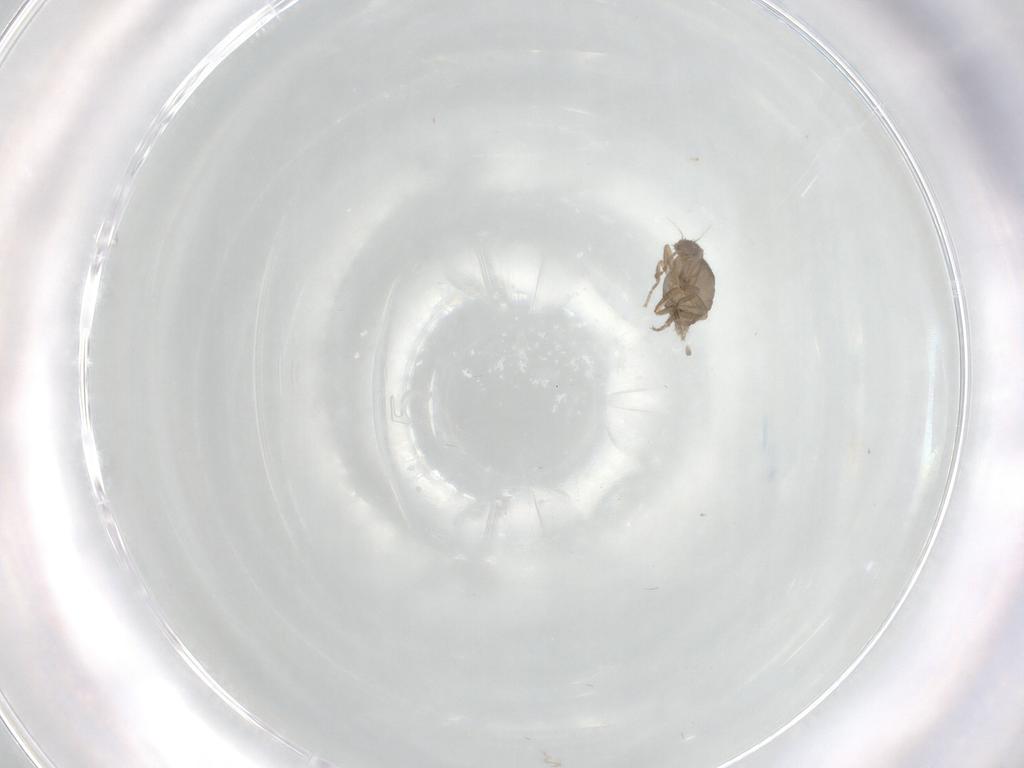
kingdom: Animalia
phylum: Arthropoda
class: Insecta
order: Diptera
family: Phoridae
